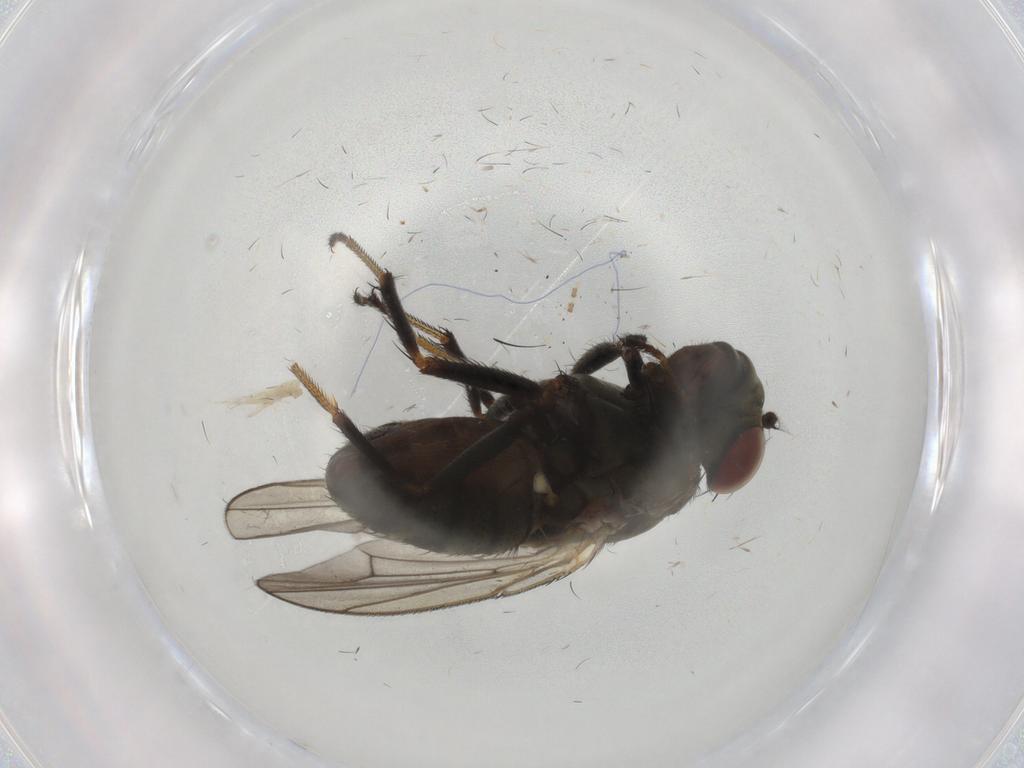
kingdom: Animalia
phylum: Arthropoda
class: Insecta
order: Diptera
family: Ephydridae
